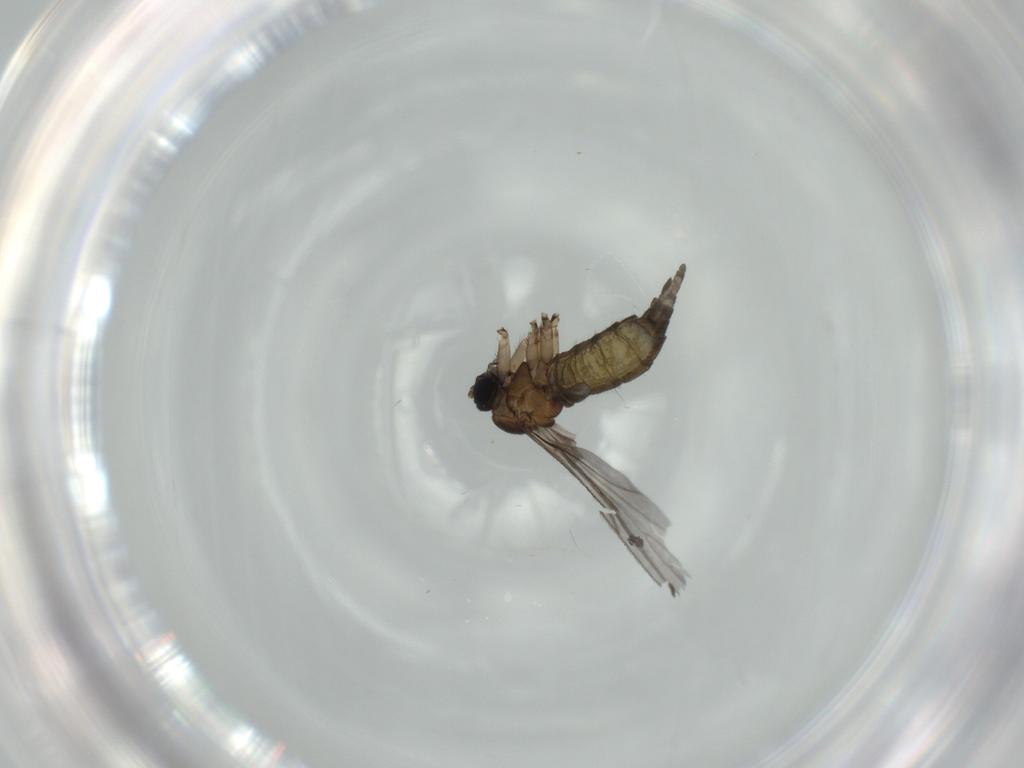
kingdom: Animalia
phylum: Arthropoda
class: Insecta
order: Diptera
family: Sciaridae
